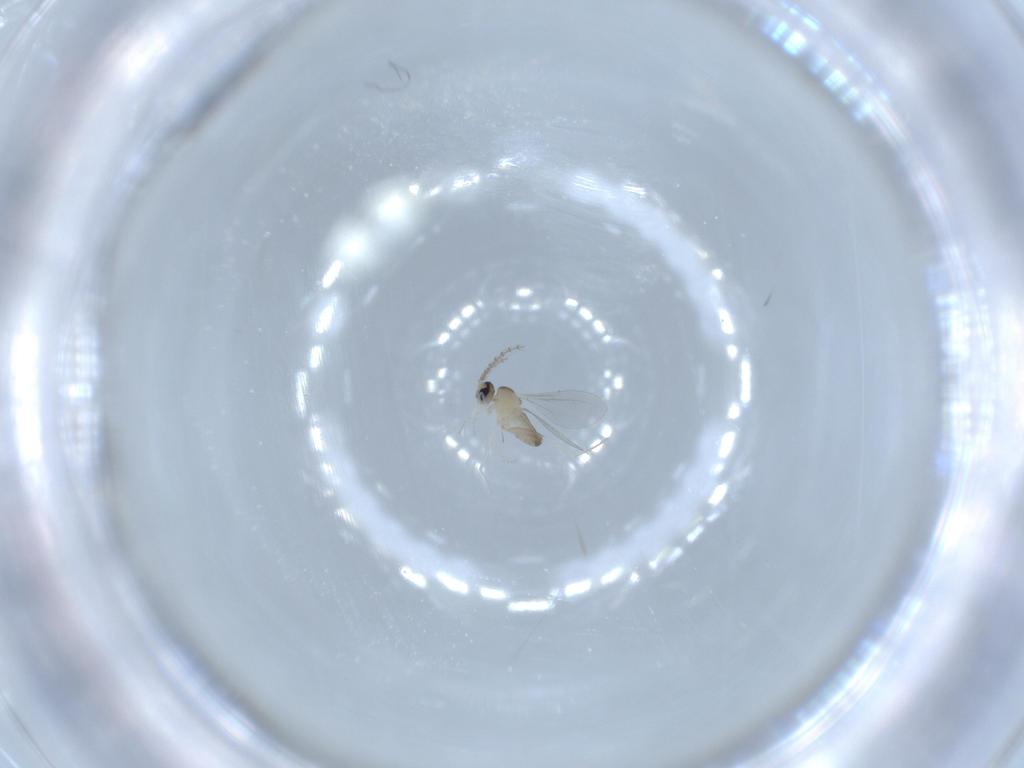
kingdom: Animalia
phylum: Arthropoda
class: Insecta
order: Diptera
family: Cecidomyiidae
